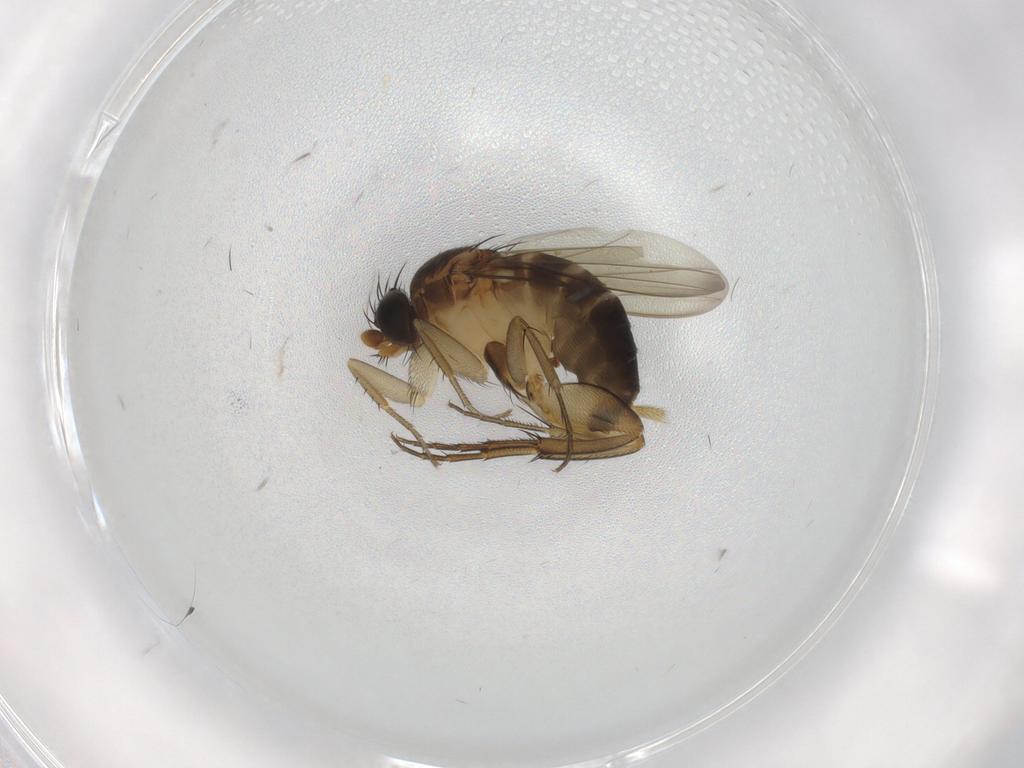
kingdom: Animalia
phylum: Arthropoda
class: Insecta
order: Diptera
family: Phoridae
